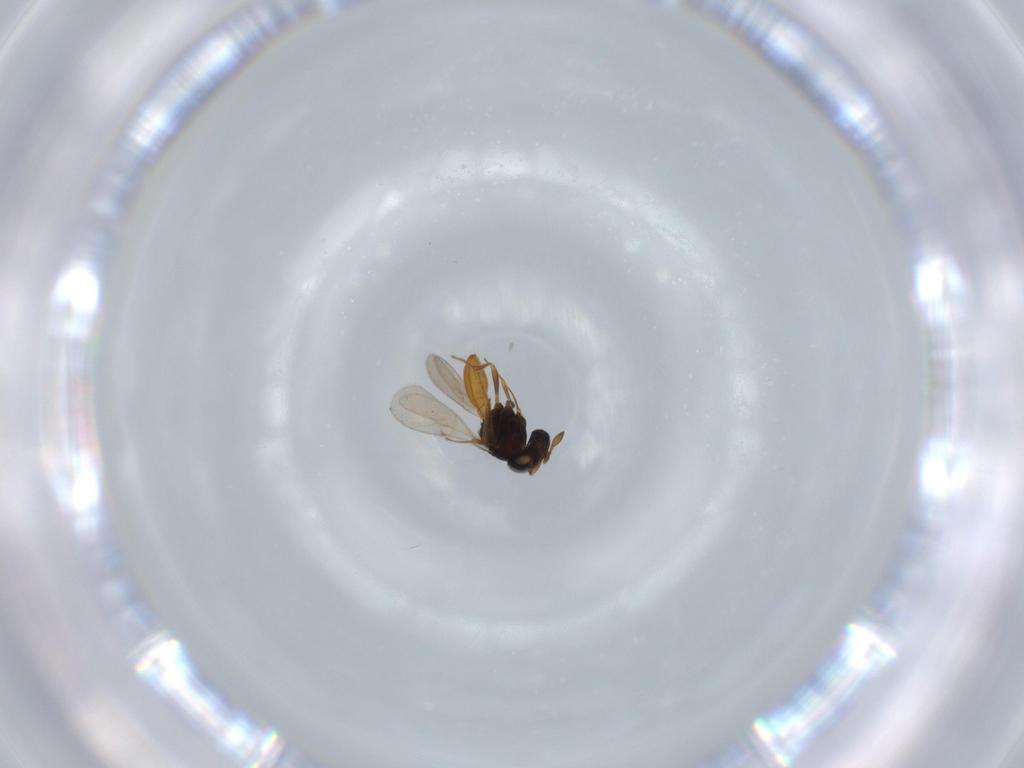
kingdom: Animalia
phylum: Arthropoda
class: Insecta
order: Hymenoptera
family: Scelionidae
